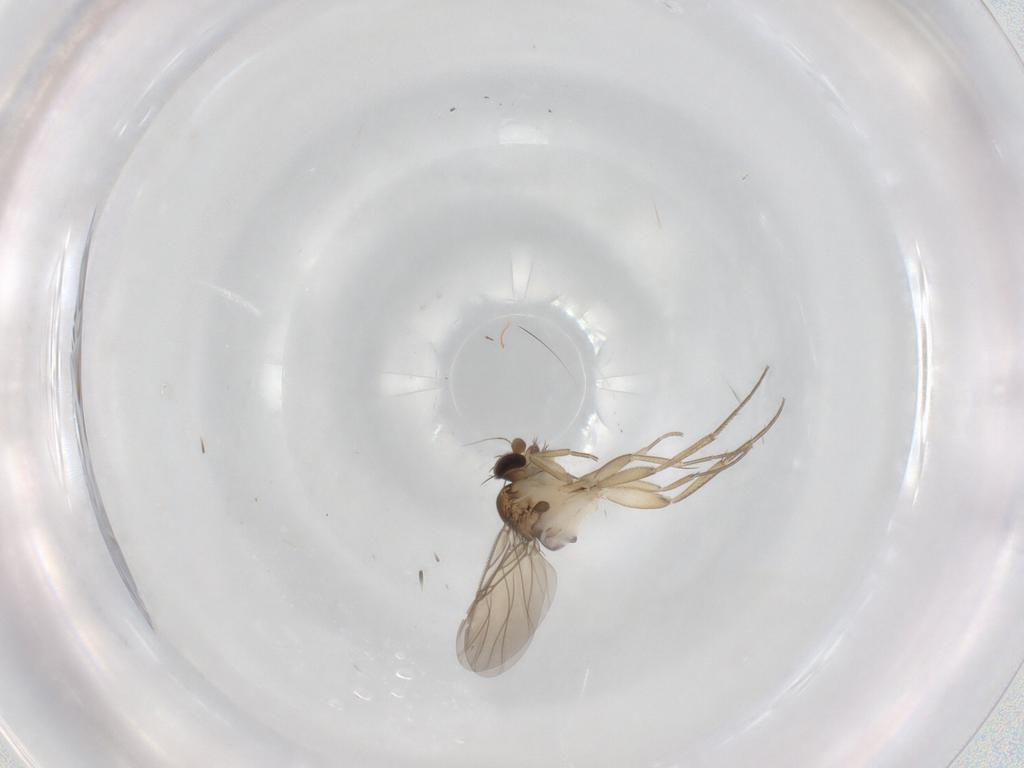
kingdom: Animalia
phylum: Arthropoda
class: Insecta
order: Diptera
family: Phoridae
